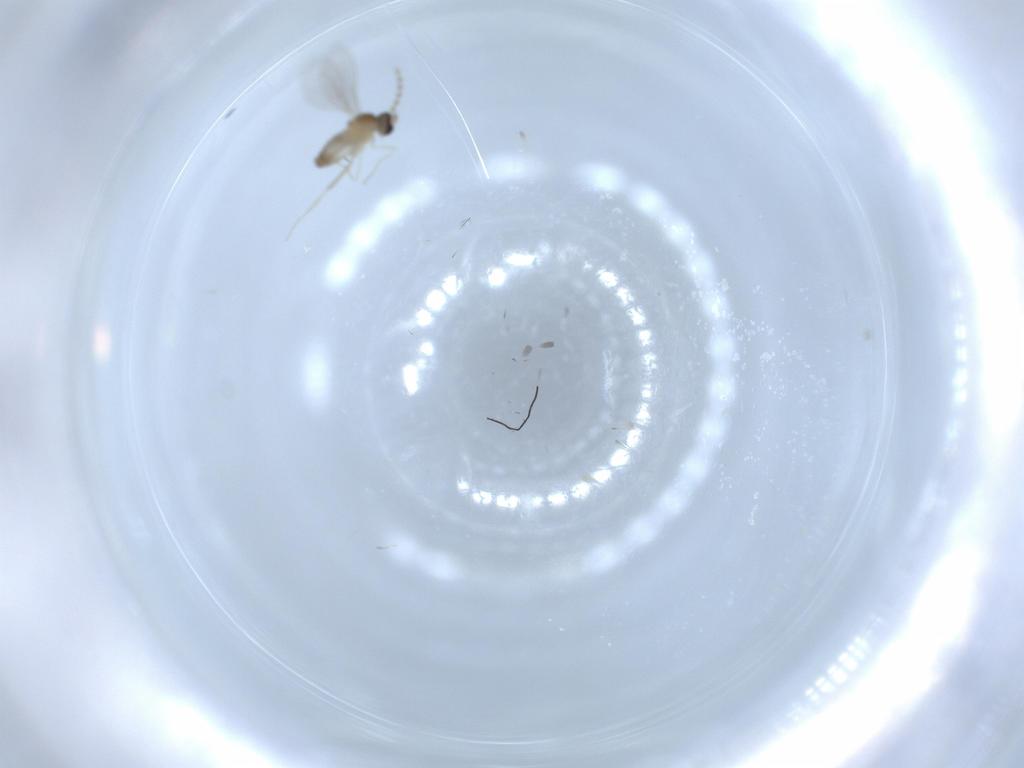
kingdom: Animalia
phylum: Arthropoda
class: Insecta
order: Diptera
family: Cecidomyiidae
